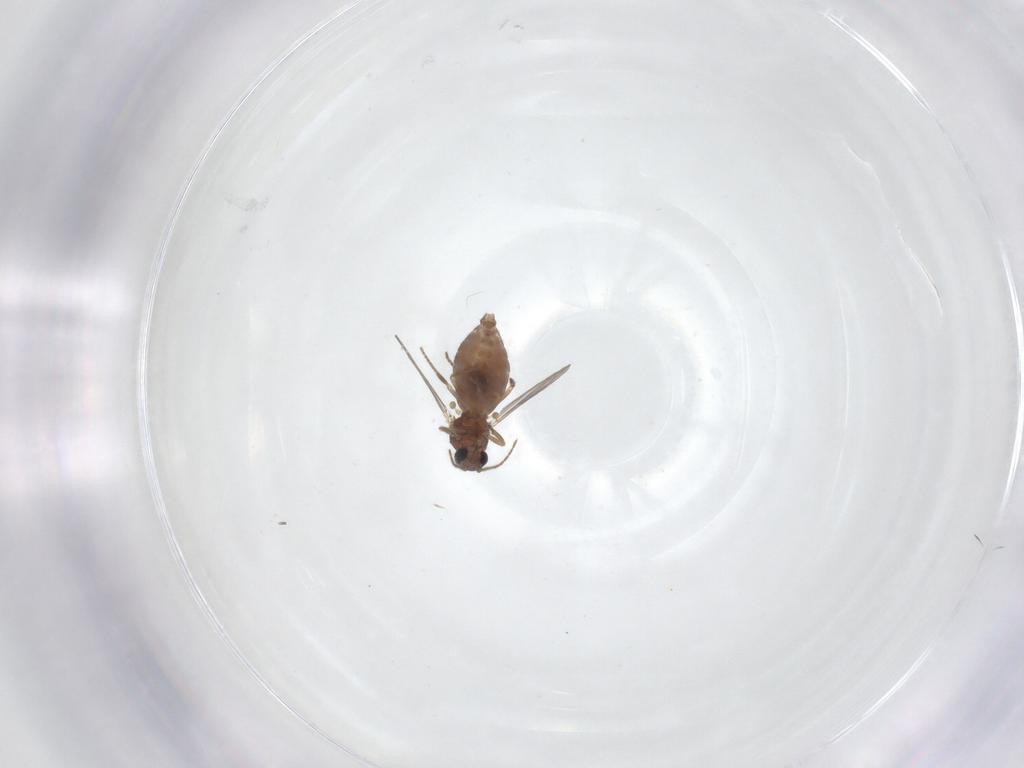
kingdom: Animalia
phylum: Arthropoda
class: Insecta
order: Diptera
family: Ceratopogonidae
